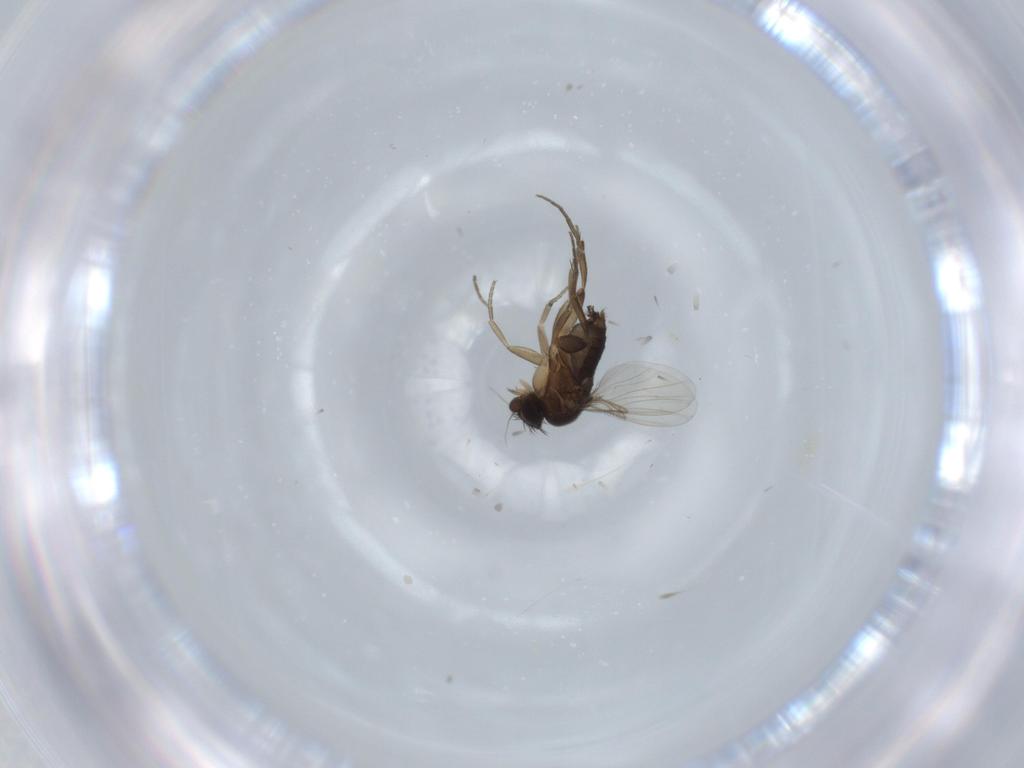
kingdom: Animalia
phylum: Arthropoda
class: Insecta
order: Diptera
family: Phoridae
